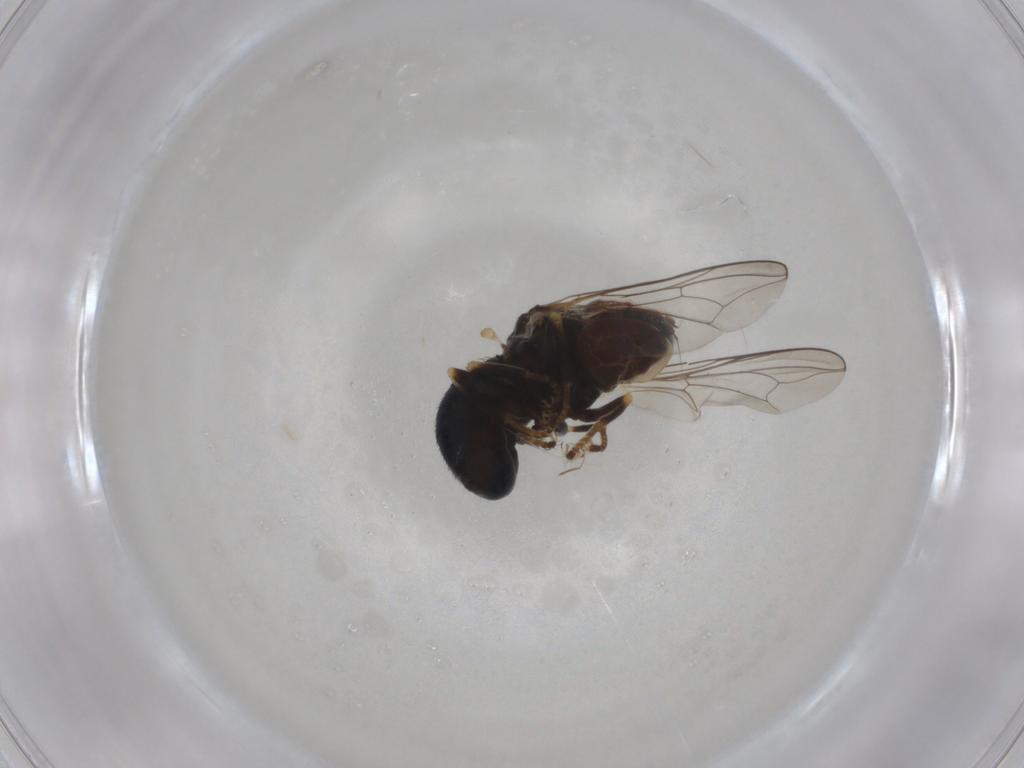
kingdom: Animalia
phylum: Arthropoda
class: Insecta
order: Diptera
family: Pipunculidae
